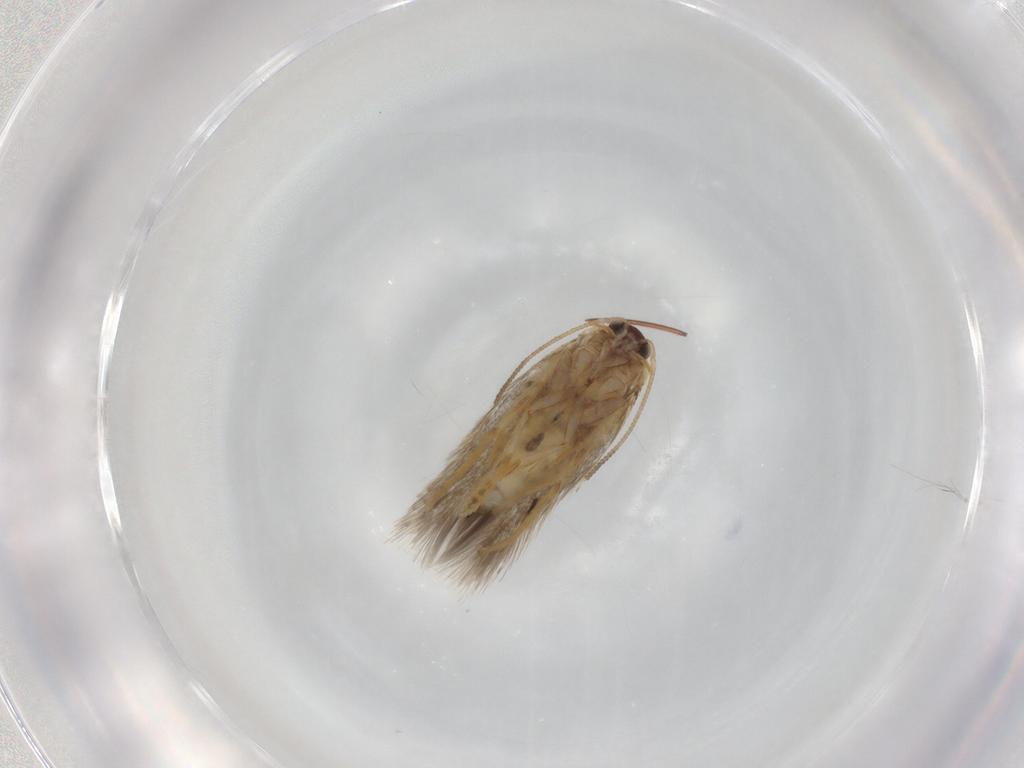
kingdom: Animalia
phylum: Arthropoda
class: Insecta
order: Lepidoptera
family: Nepticulidae
